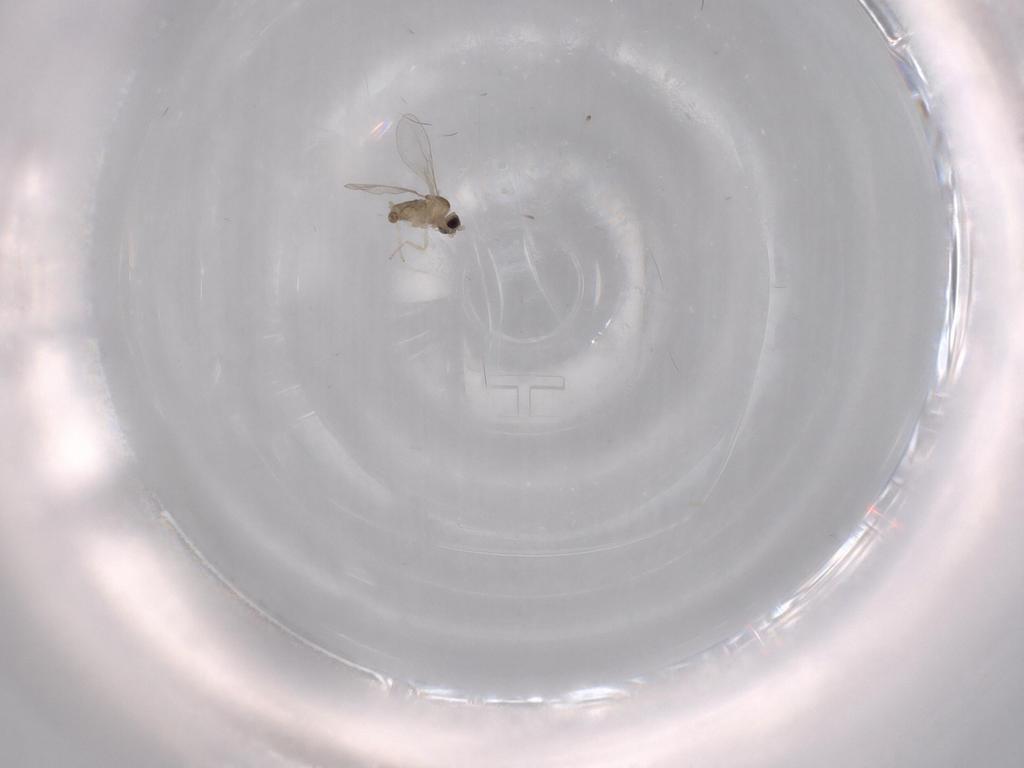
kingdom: Animalia
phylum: Arthropoda
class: Insecta
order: Diptera
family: Cecidomyiidae
